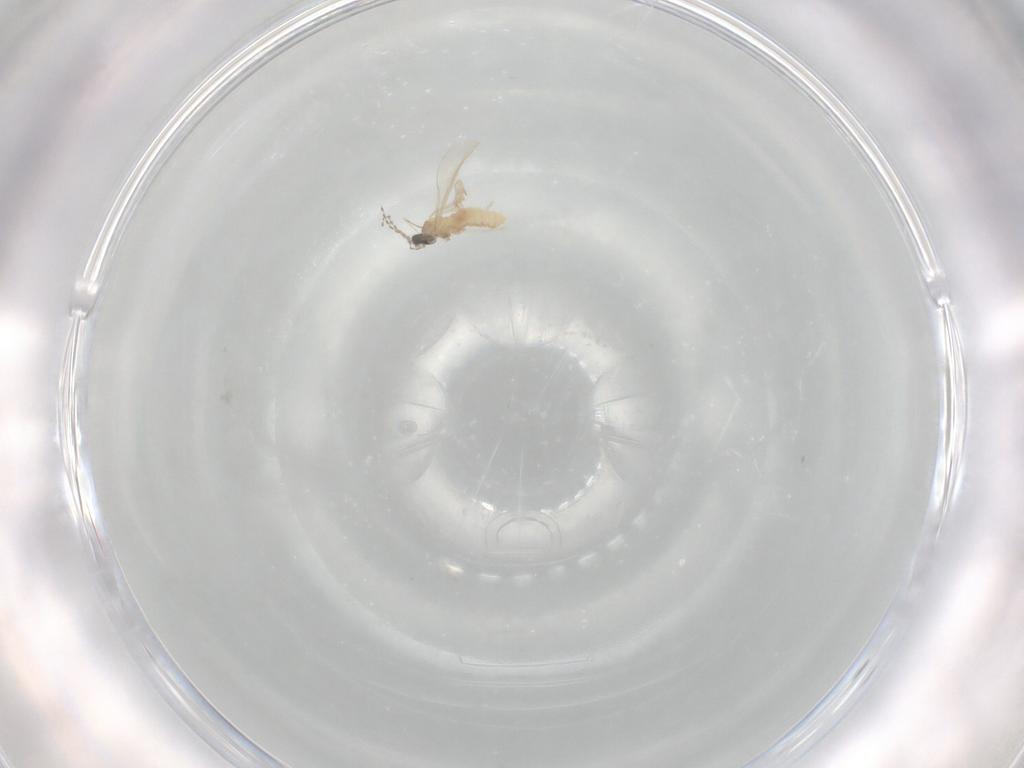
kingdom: Animalia
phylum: Arthropoda
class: Insecta
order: Diptera
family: Cecidomyiidae
